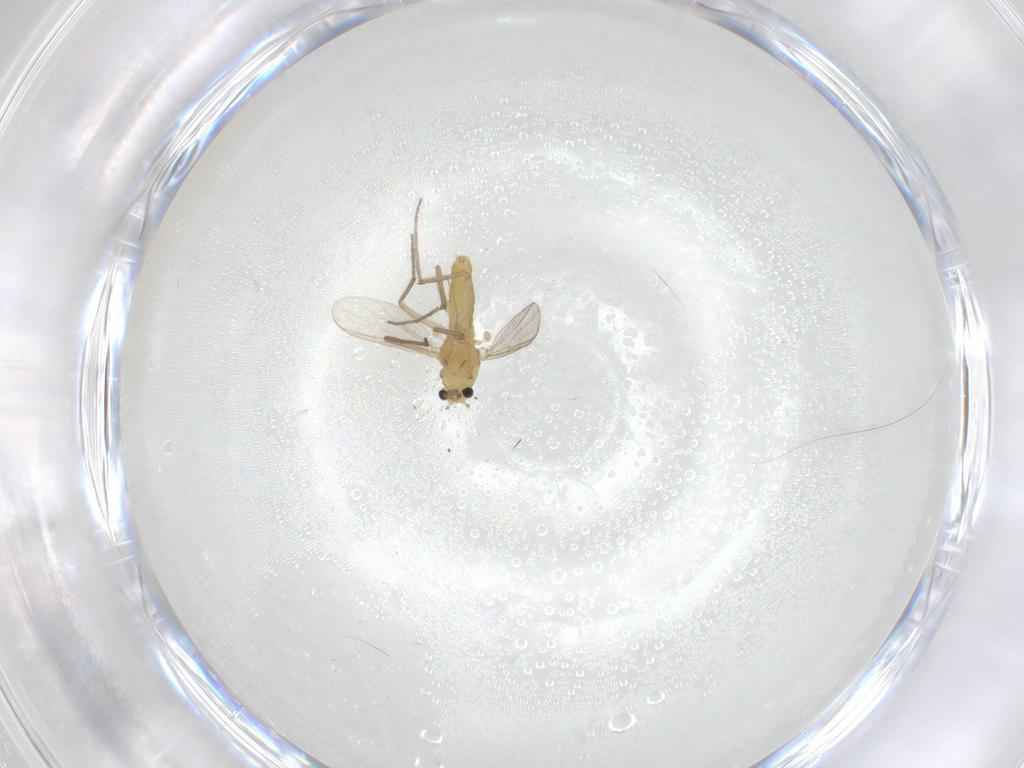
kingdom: Animalia
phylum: Arthropoda
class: Insecta
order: Diptera
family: Chironomidae
